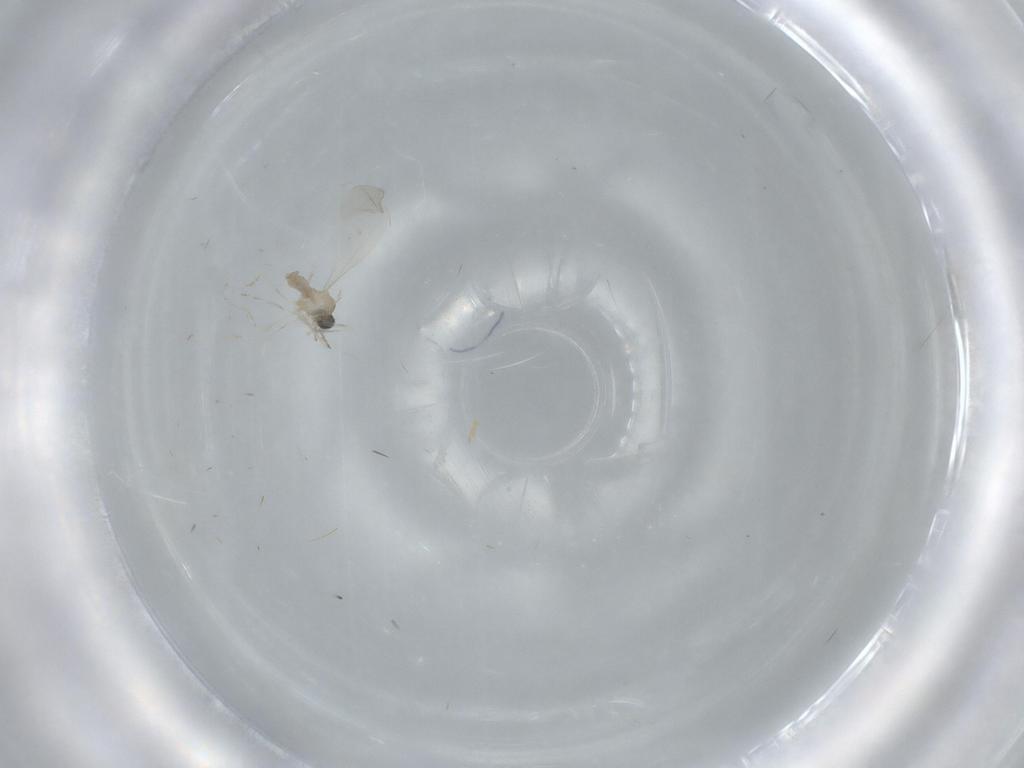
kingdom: Animalia
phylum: Arthropoda
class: Insecta
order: Diptera
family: Cecidomyiidae
